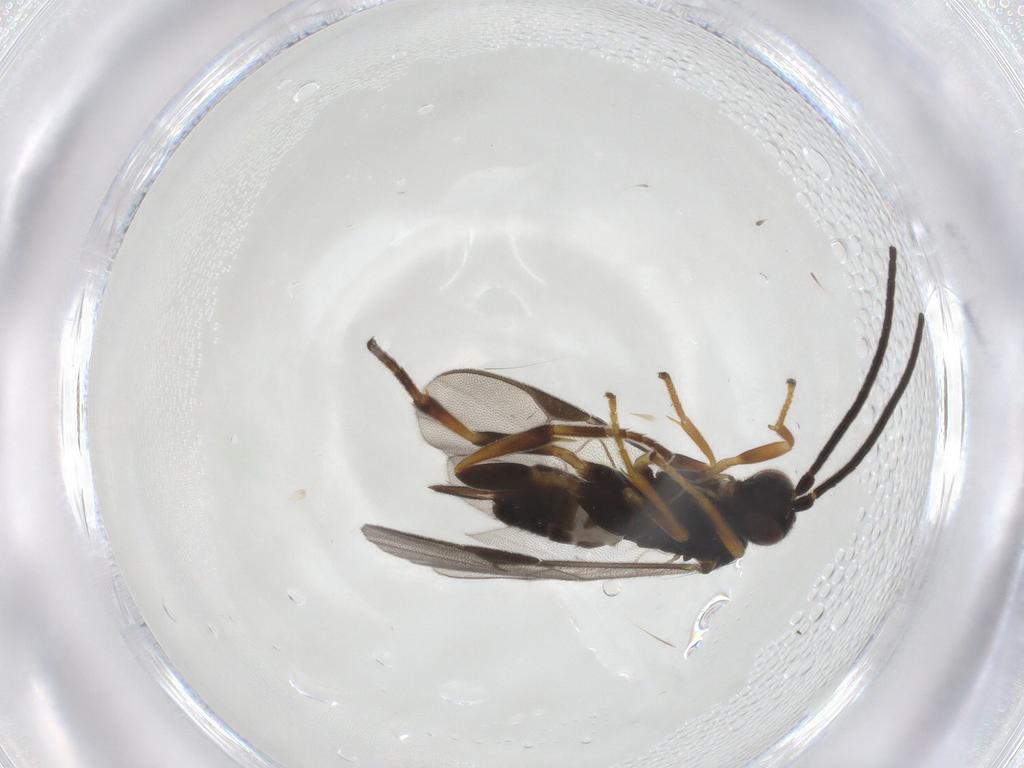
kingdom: Animalia
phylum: Arthropoda
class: Insecta
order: Hymenoptera
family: Braconidae
